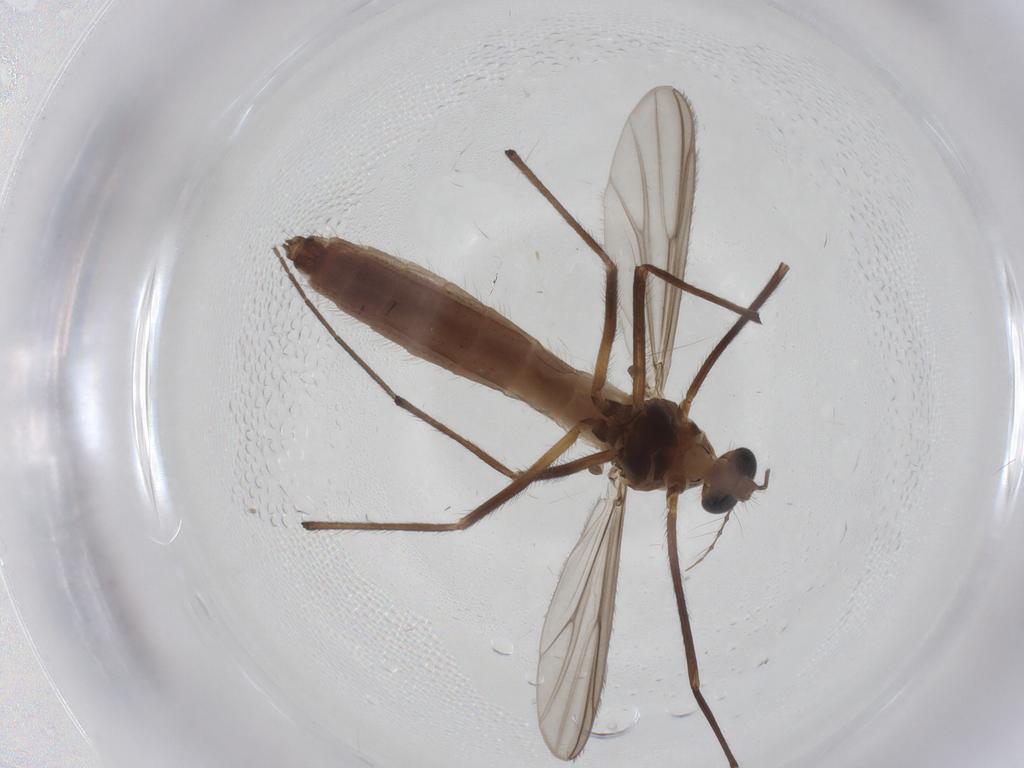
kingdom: Animalia
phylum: Arthropoda
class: Insecta
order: Diptera
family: Chironomidae
